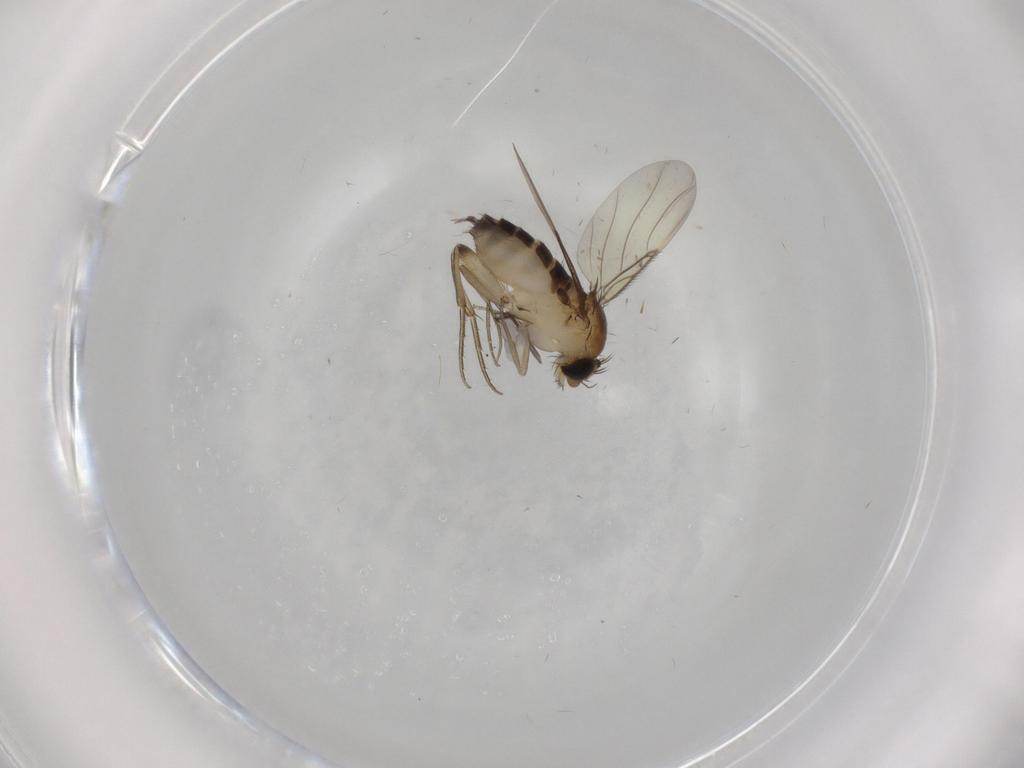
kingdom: Animalia
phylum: Arthropoda
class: Insecta
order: Diptera
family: Phoridae
